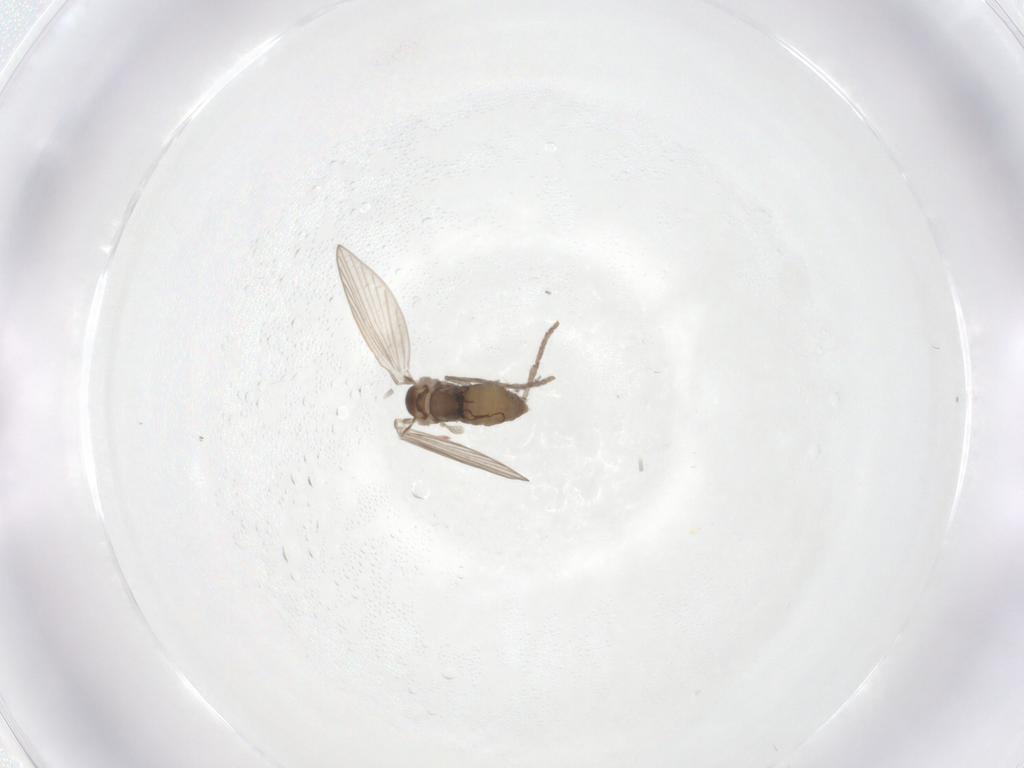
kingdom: Animalia
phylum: Arthropoda
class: Insecta
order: Diptera
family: Psychodidae
